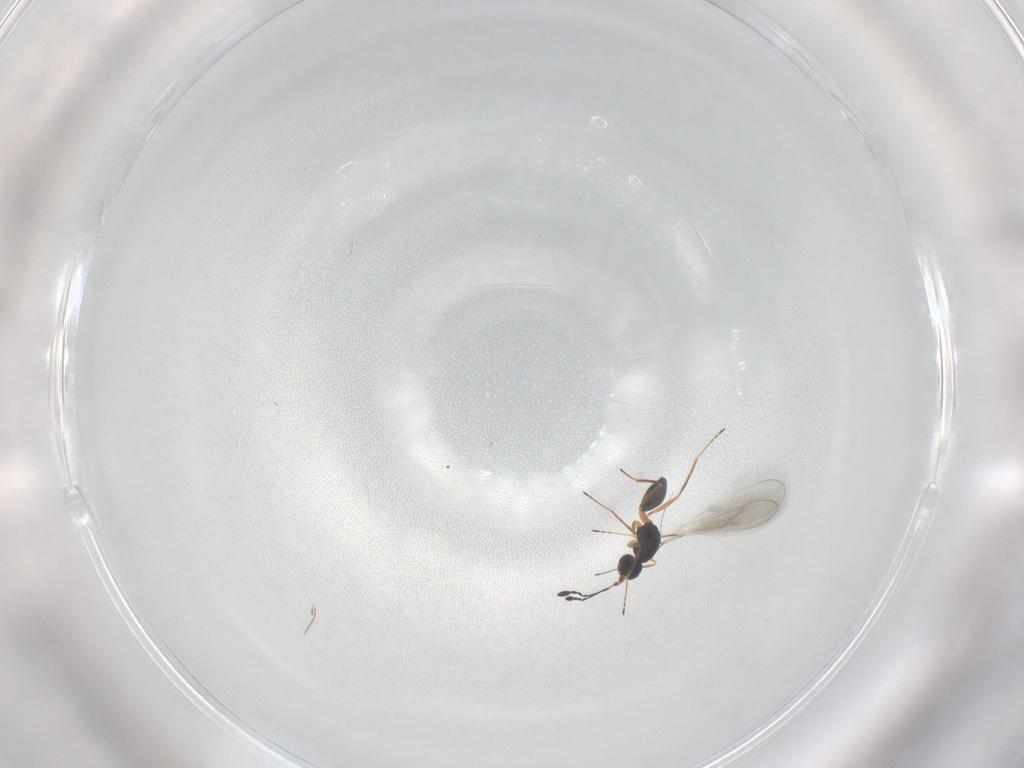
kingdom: Animalia
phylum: Arthropoda
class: Insecta
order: Hymenoptera
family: Mymaridae
